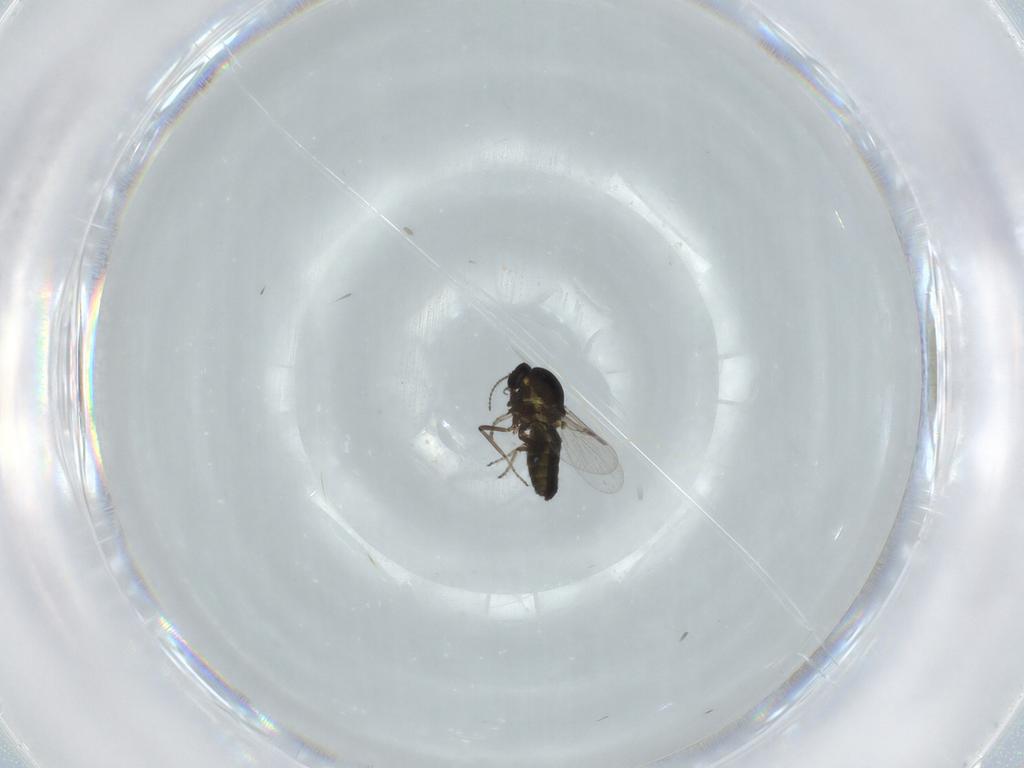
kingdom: Animalia
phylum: Arthropoda
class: Insecta
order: Diptera
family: Ceratopogonidae
